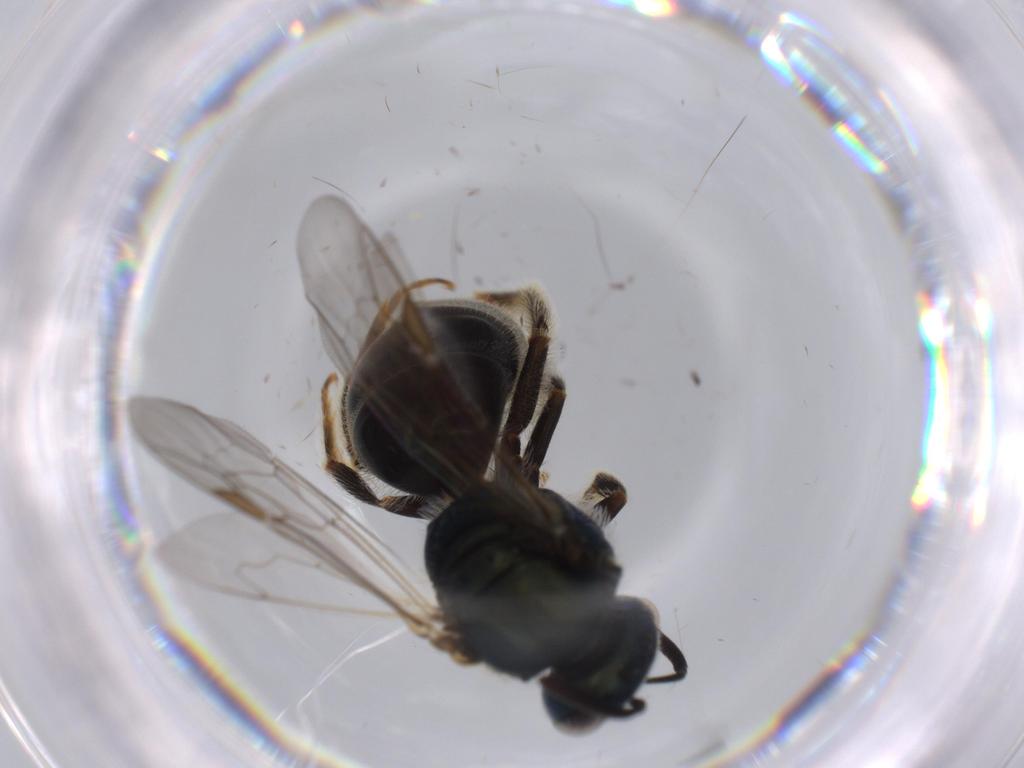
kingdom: Animalia
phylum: Arthropoda
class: Insecta
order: Hymenoptera
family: Halictidae
